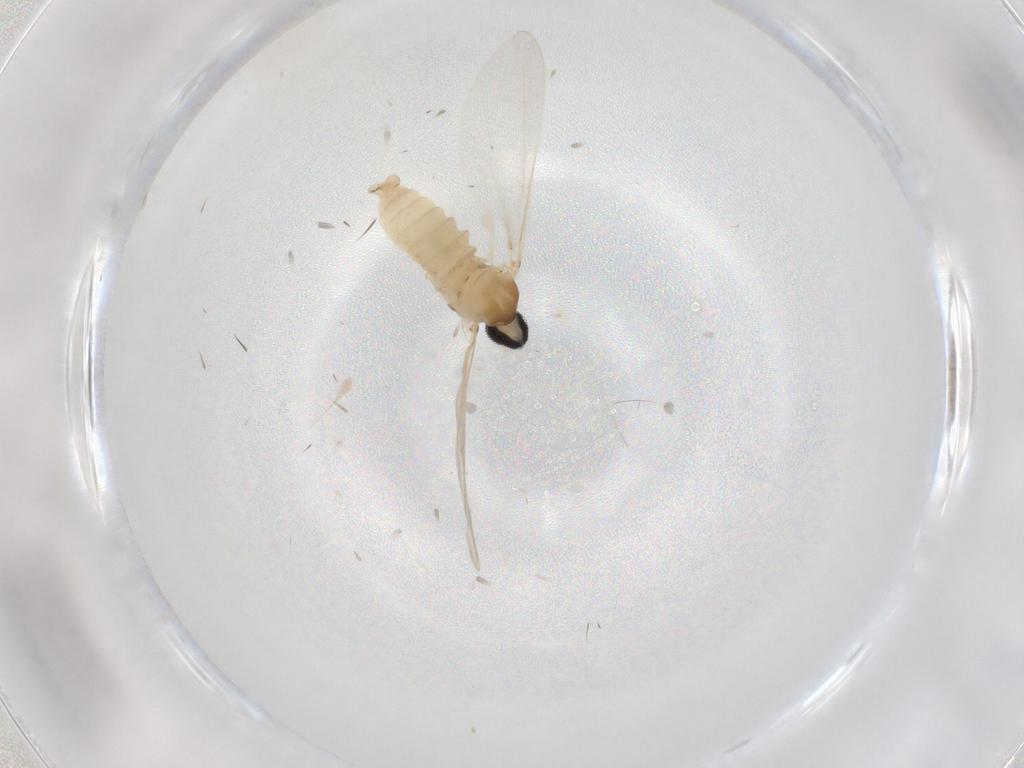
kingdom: Animalia
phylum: Arthropoda
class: Insecta
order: Diptera
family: Cecidomyiidae
